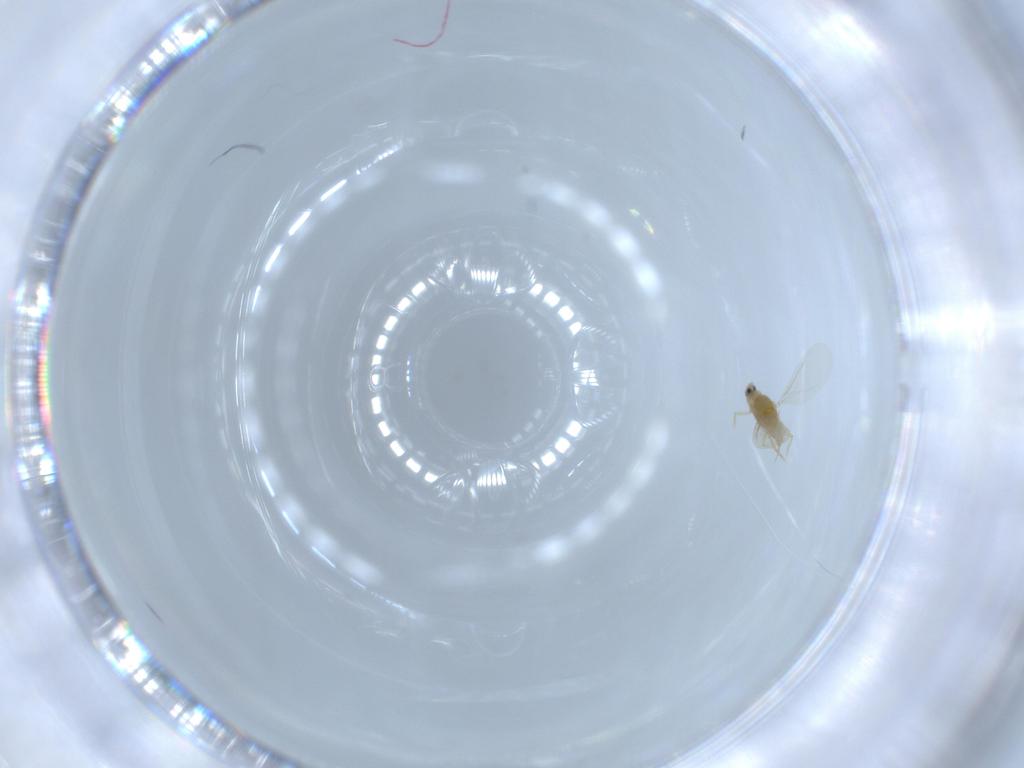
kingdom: Animalia
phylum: Arthropoda
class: Insecta
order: Hemiptera
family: Diaspididae
